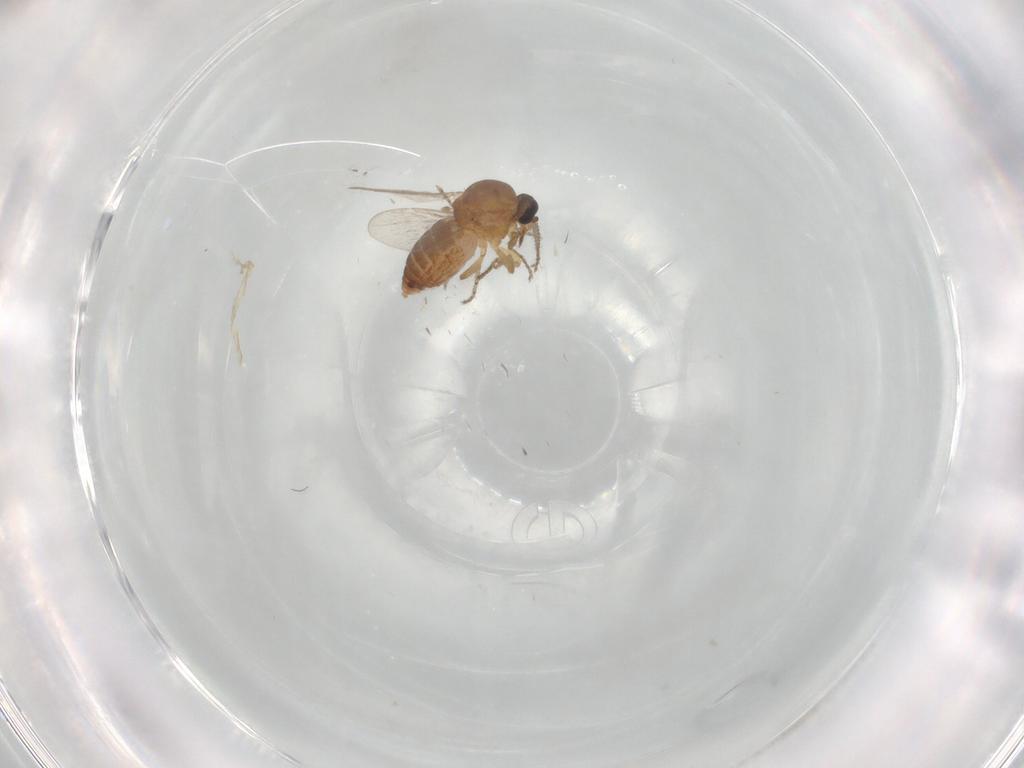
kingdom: Animalia
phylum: Arthropoda
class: Insecta
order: Diptera
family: Ceratopogonidae
